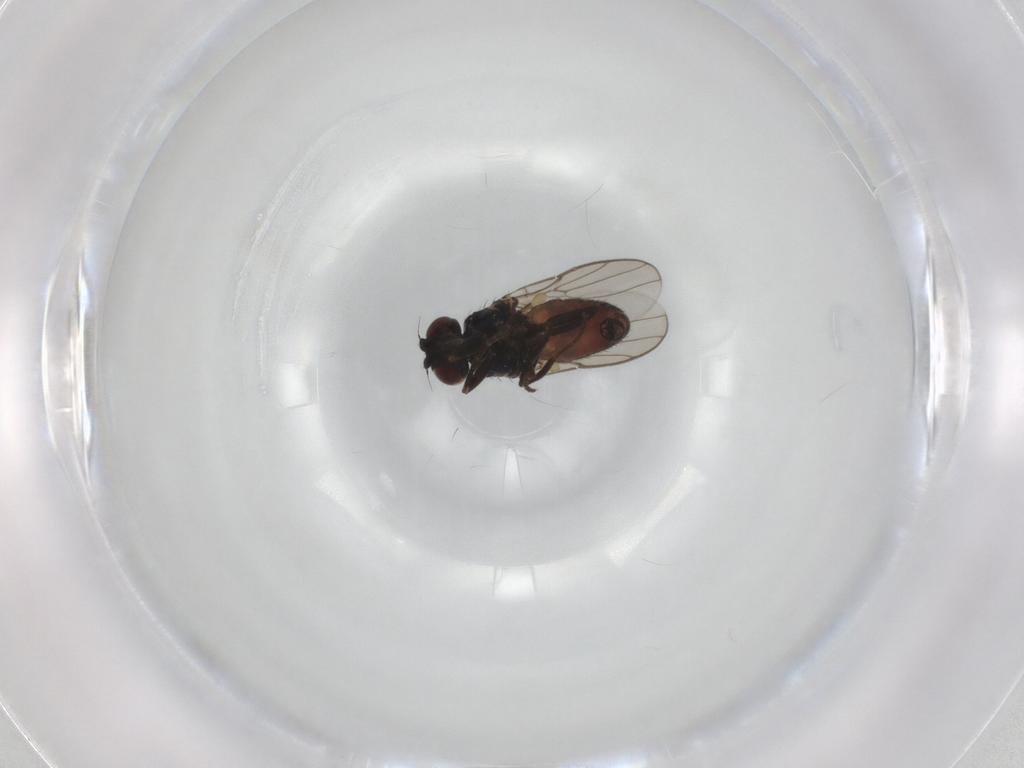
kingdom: Animalia
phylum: Arthropoda
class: Insecta
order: Diptera
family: Chloropidae
